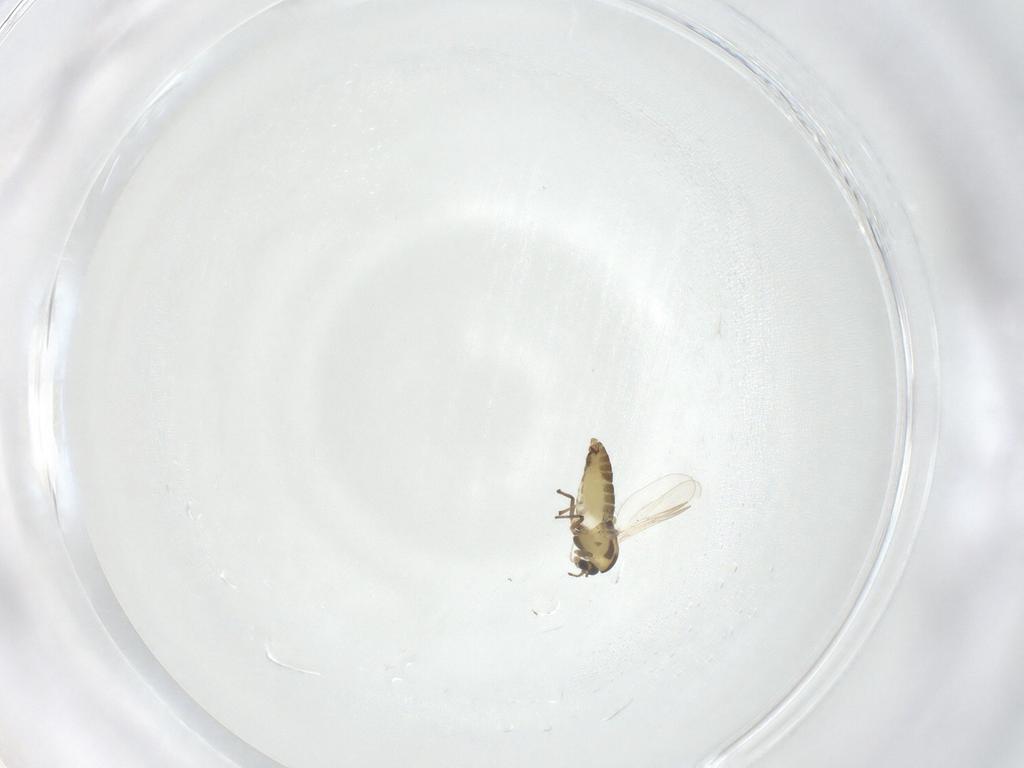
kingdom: Animalia
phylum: Arthropoda
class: Insecta
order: Diptera
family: Chironomidae
